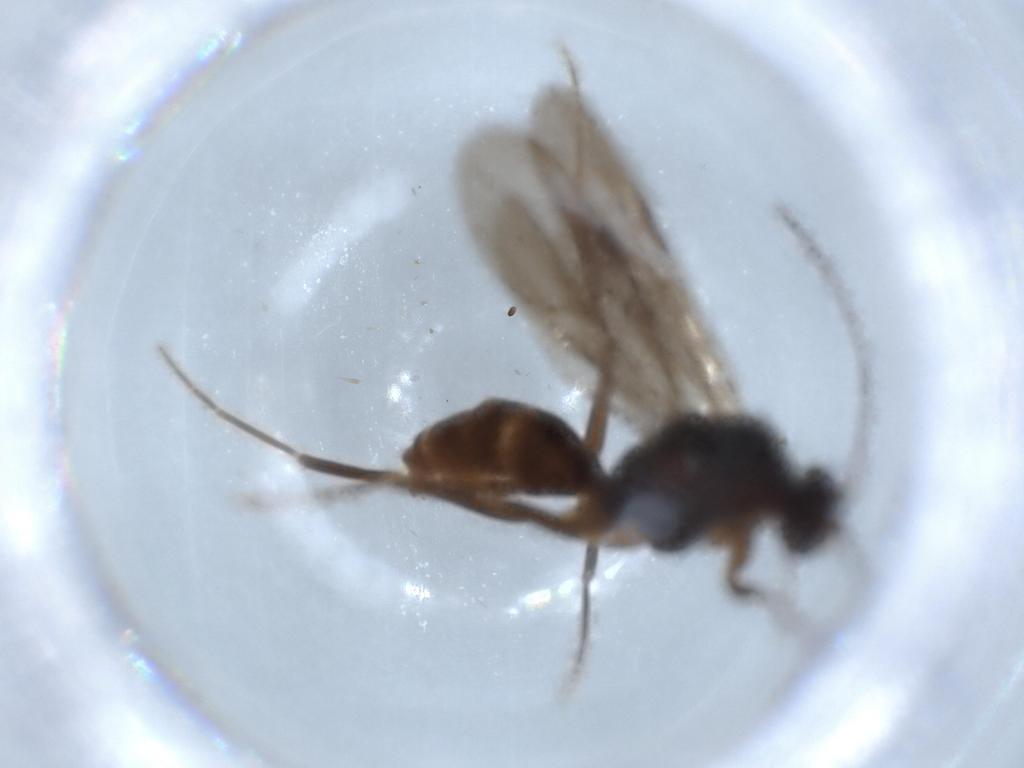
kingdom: Animalia
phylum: Arthropoda
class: Insecta
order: Hymenoptera
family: Formicidae
